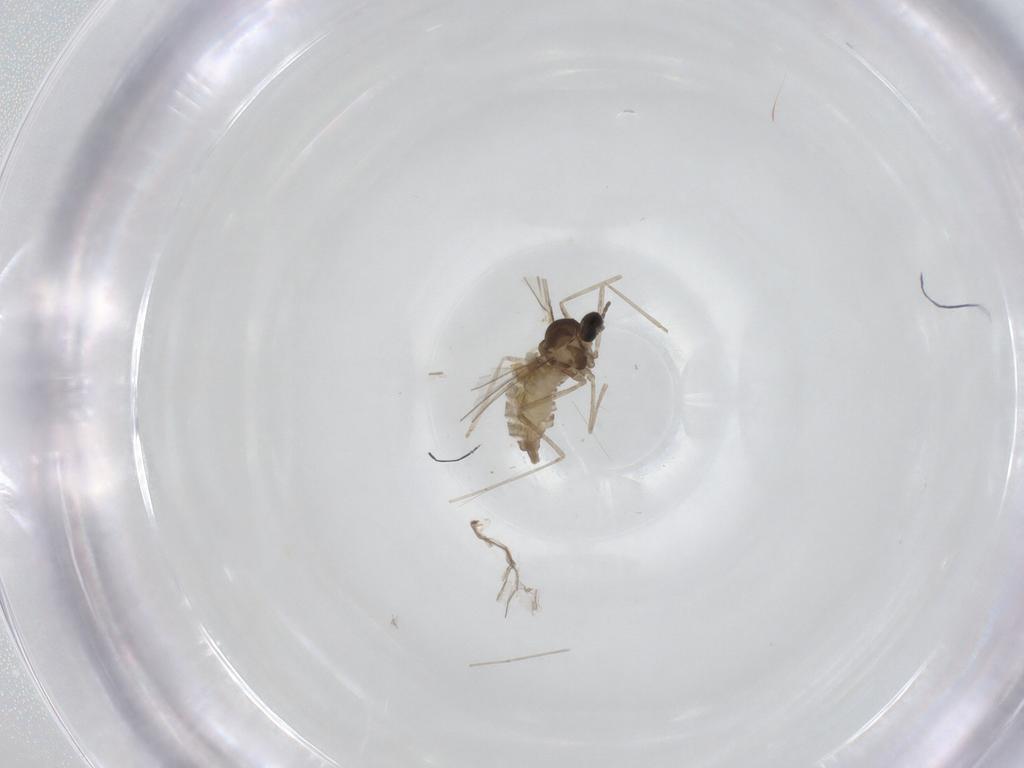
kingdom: Animalia
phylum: Arthropoda
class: Insecta
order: Diptera
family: Cecidomyiidae
